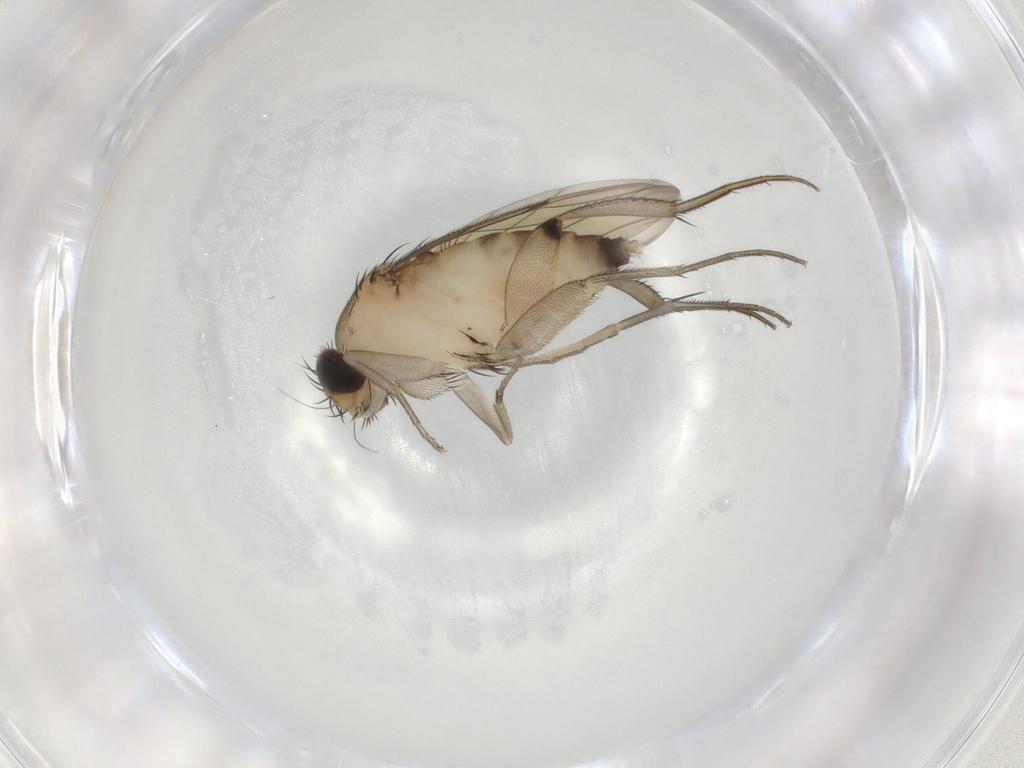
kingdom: Animalia
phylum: Arthropoda
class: Insecta
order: Diptera
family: Phoridae
